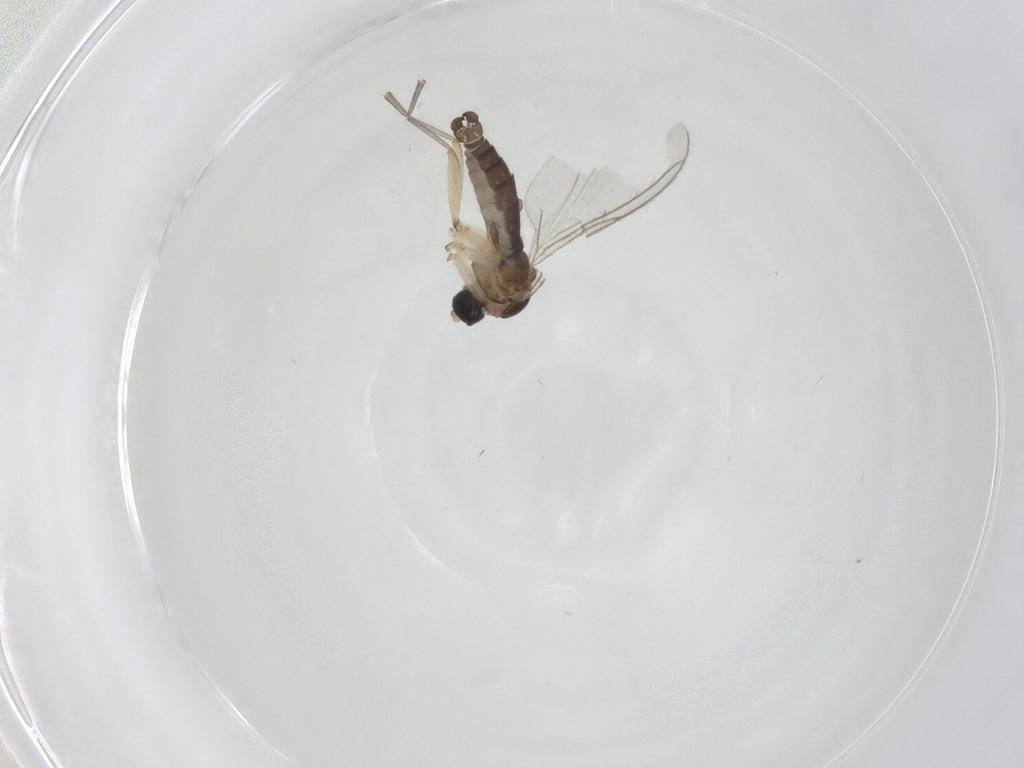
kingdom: Animalia
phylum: Arthropoda
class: Insecta
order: Diptera
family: Sciaridae
